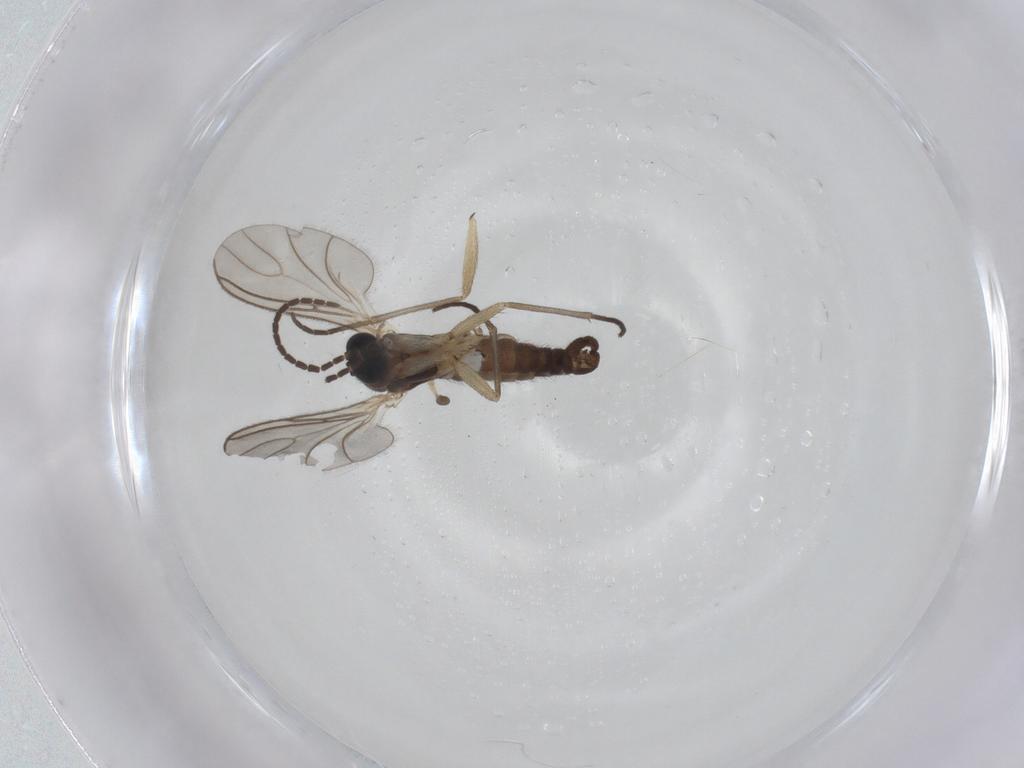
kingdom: Animalia
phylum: Arthropoda
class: Insecta
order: Diptera
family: Sciaridae
